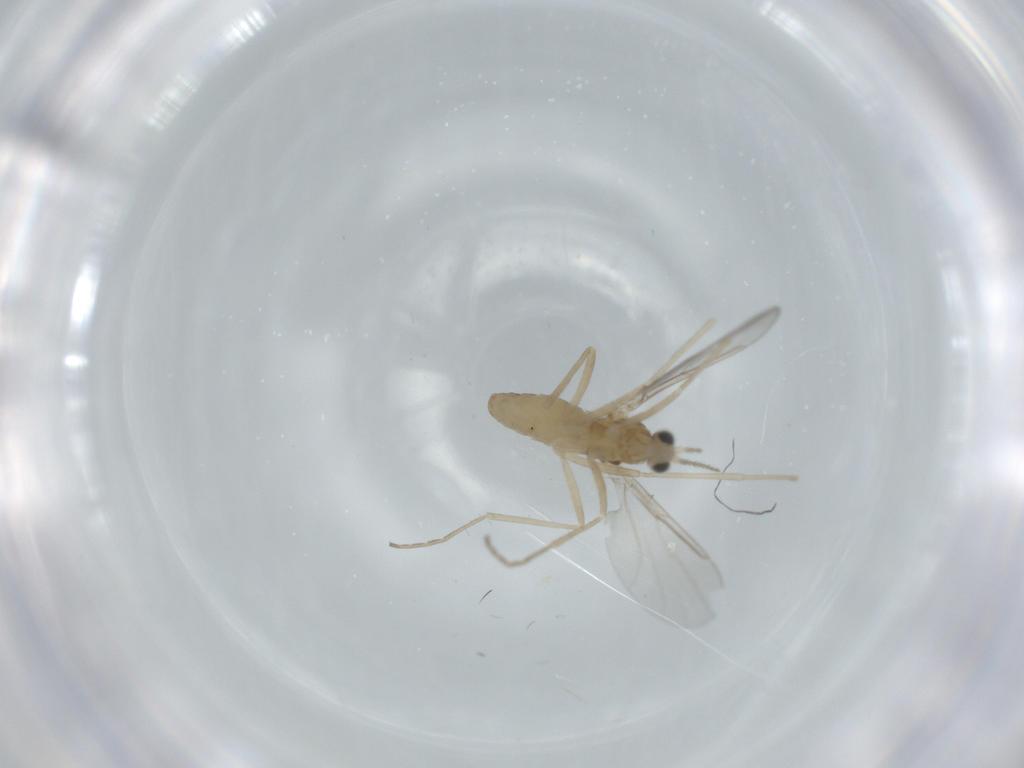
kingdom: Animalia
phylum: Arthropoda
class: Insecta
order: Diptera
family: Cecidomyiidae
